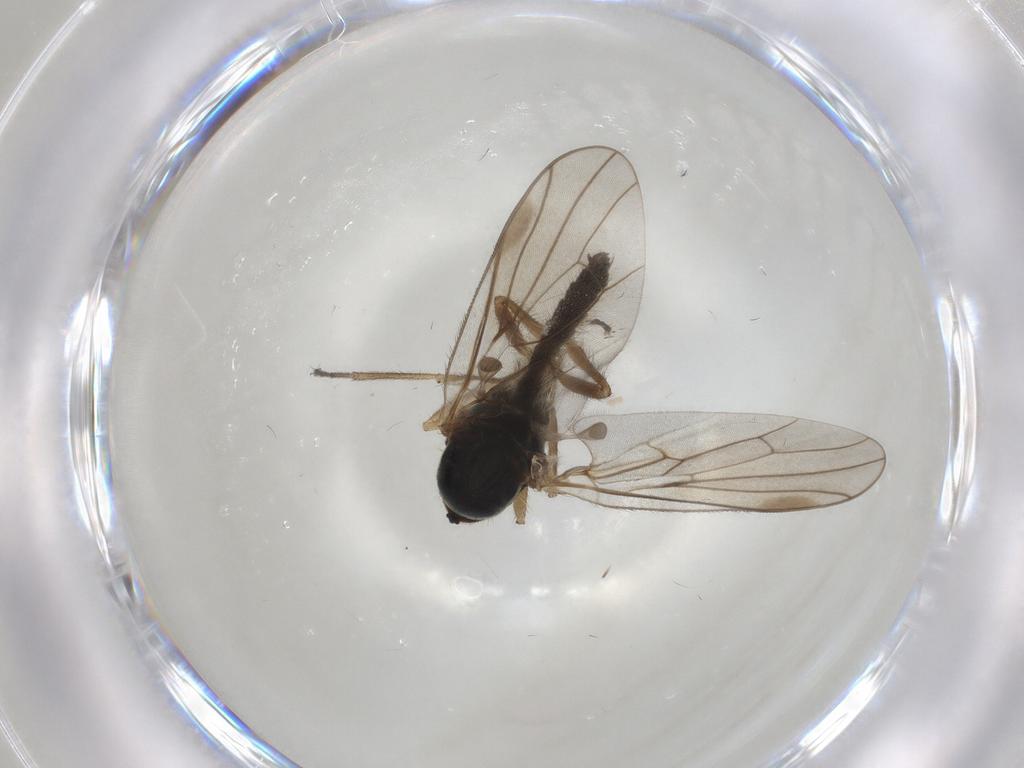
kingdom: Animalia
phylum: Arthropoda
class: Insecta
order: Diptera
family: Hybotidae
